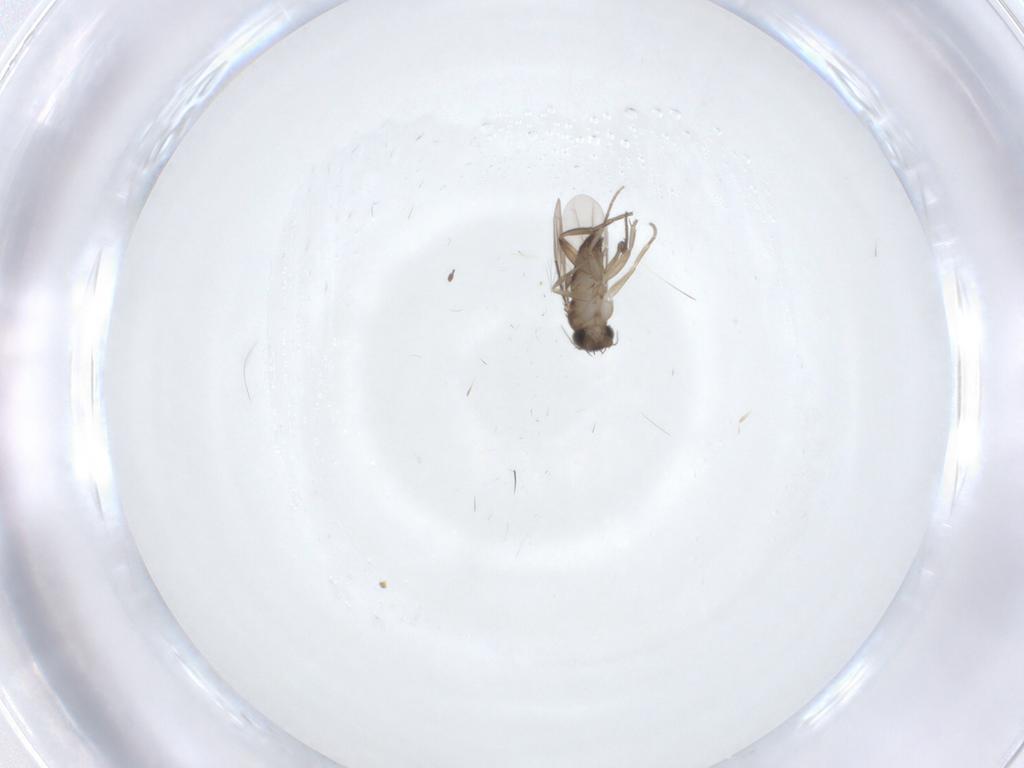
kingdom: Animalia
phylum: Arthropoda
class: Insecta
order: Diptera
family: Phoridae
